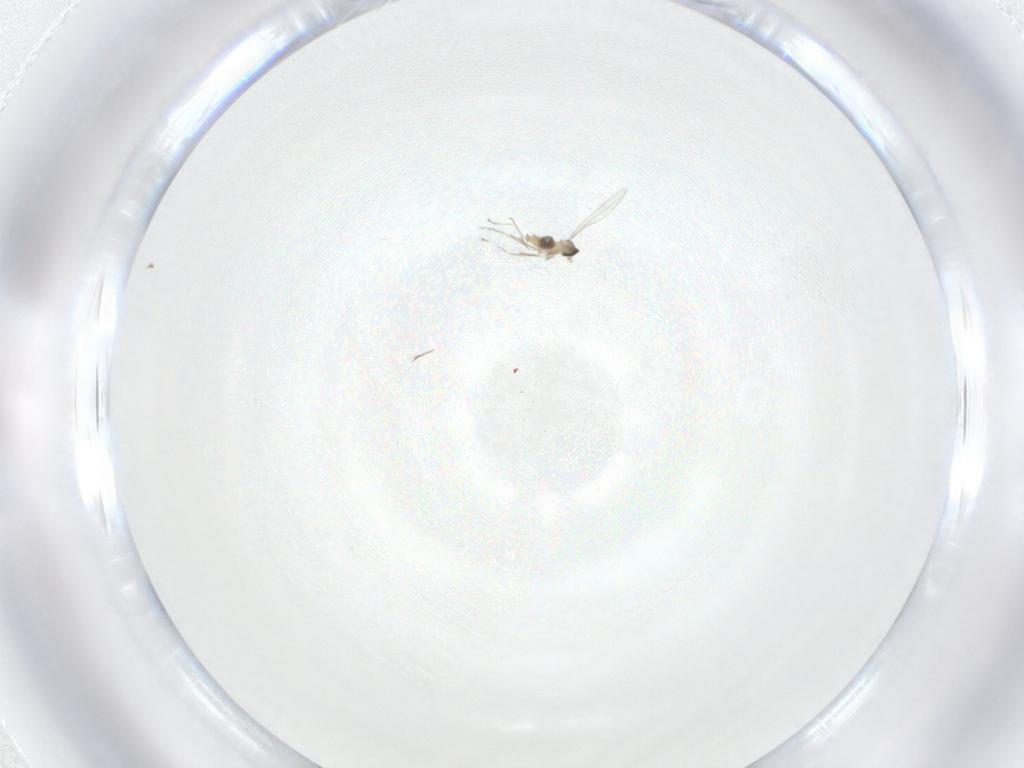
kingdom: Animalia
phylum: Arthropoda
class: Insecta
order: Diptera
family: Cecidomyiidae
